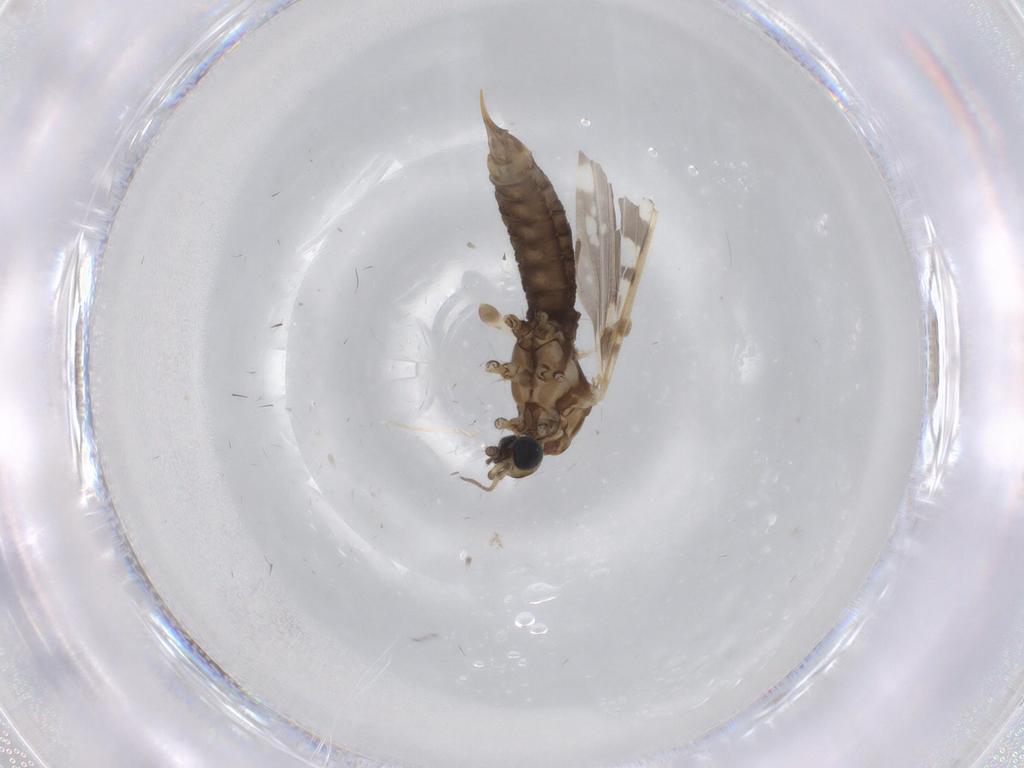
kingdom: Animalia
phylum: Arthropoda
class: Insecta
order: Diptera
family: Limoniidae
